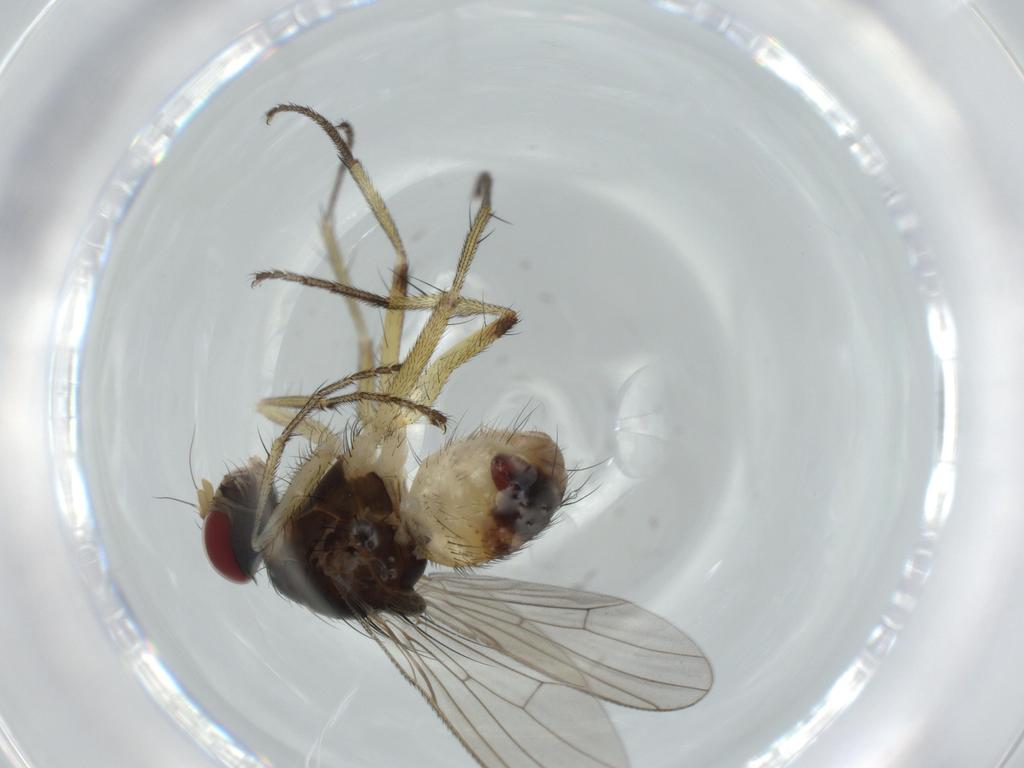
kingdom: Animalia
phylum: Arthropoda
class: Insecta
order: Diptera
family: Muscidae
